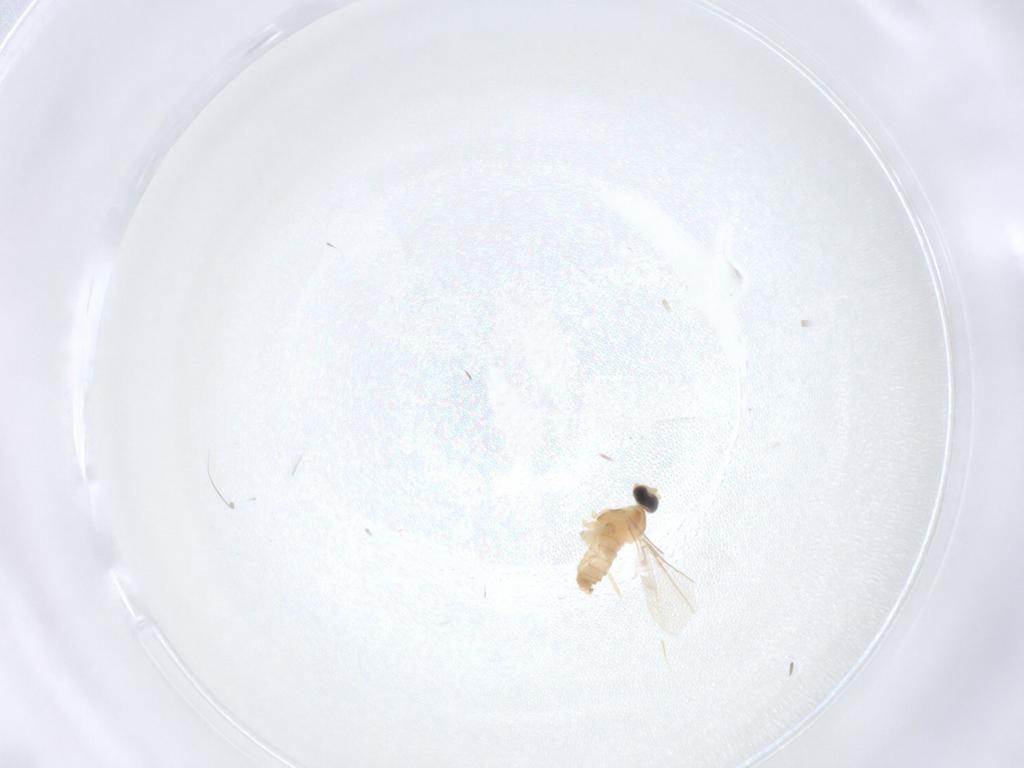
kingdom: Animalia
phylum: Arthropoda
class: Insecta
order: Diptera
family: Cecidomyiidae
